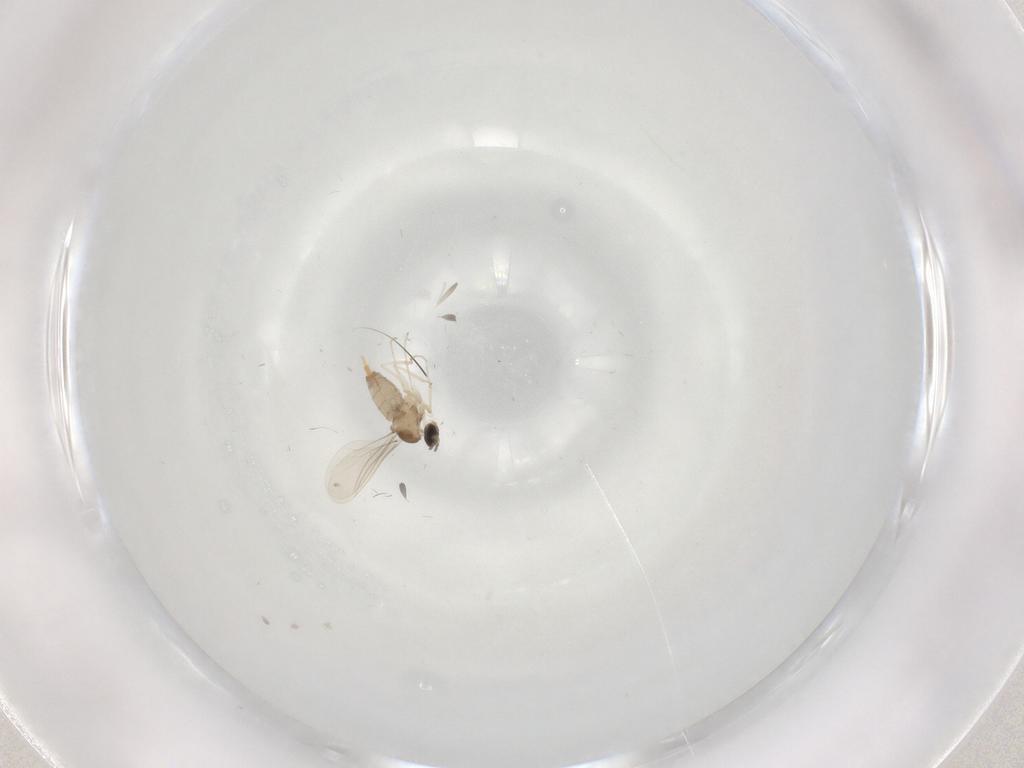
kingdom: Animalia
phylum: Arthropoda
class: Insecta
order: Diptera
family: Cecidomyiidae
